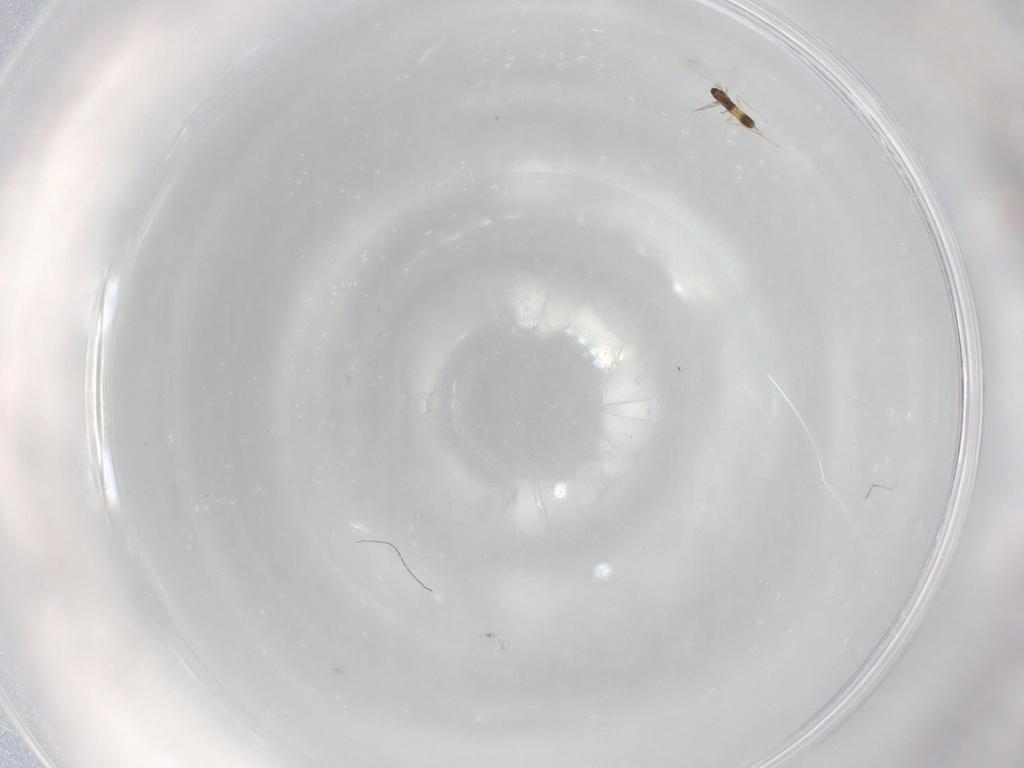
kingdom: Animalia
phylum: Arthropoda
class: Insecta
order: Hymenoptera
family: Mymaridae
